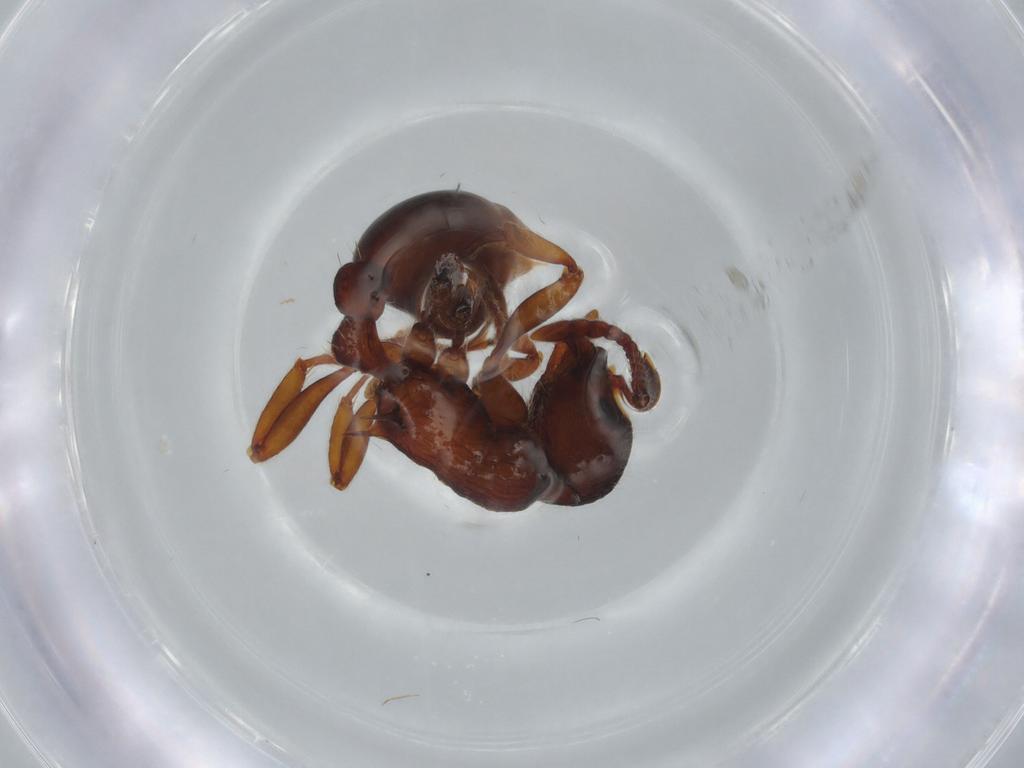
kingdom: Animalia
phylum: Arthropoda
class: Insecta
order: Hymenoptera
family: Formicidae
